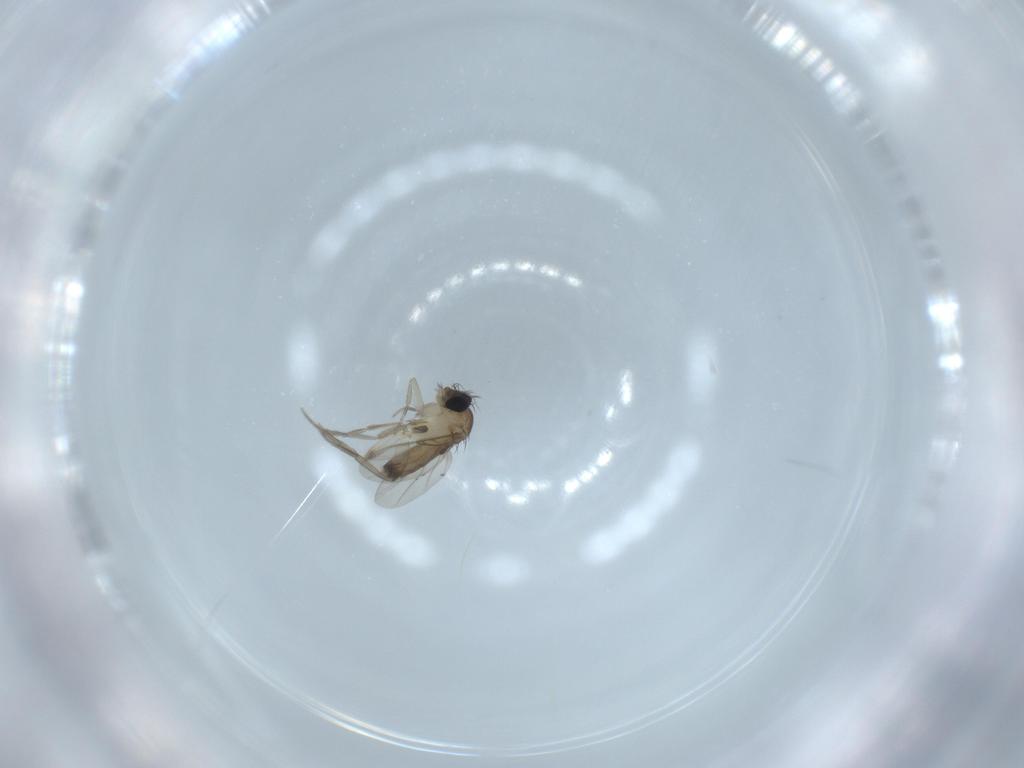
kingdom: Animalia
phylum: Arthropoda
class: Insecta
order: Diptera
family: Phoridae
